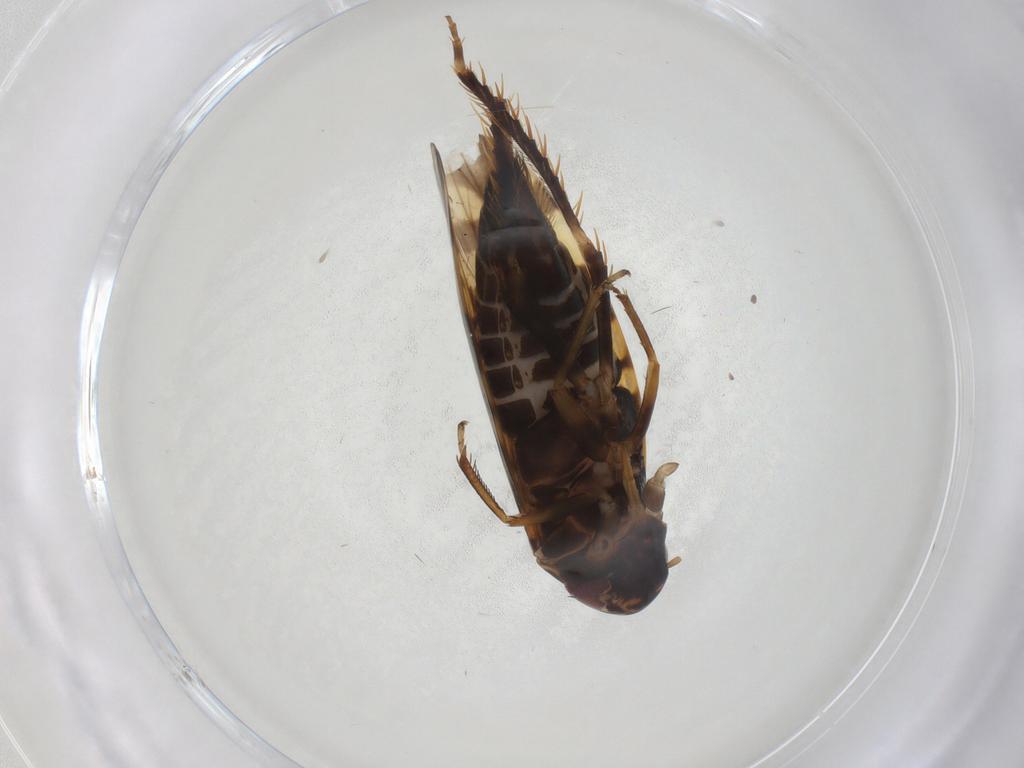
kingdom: Animalia
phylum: Arthropoda
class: Insecta
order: Hemiptera
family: Cicadellidae
